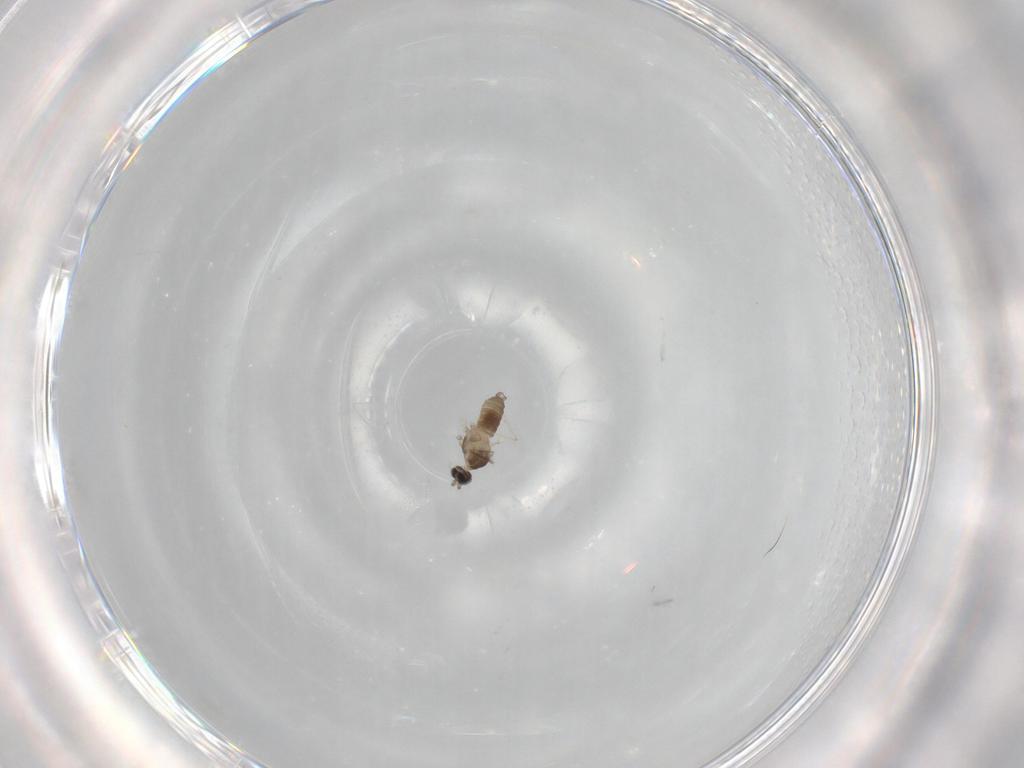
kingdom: Animalia
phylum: Arthropoda
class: Insecta
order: Diptera
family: Cecidomyiidae
